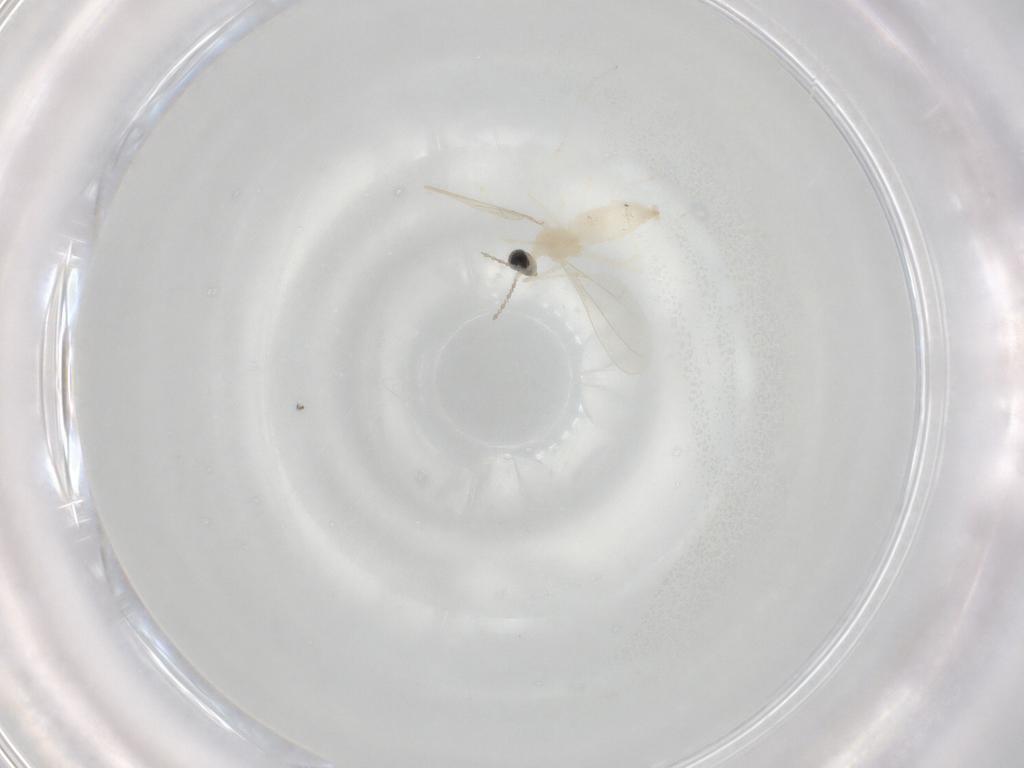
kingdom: Animalia
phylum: Arthropoda
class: Insecta
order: Diptera
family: Cecidomyiidae
